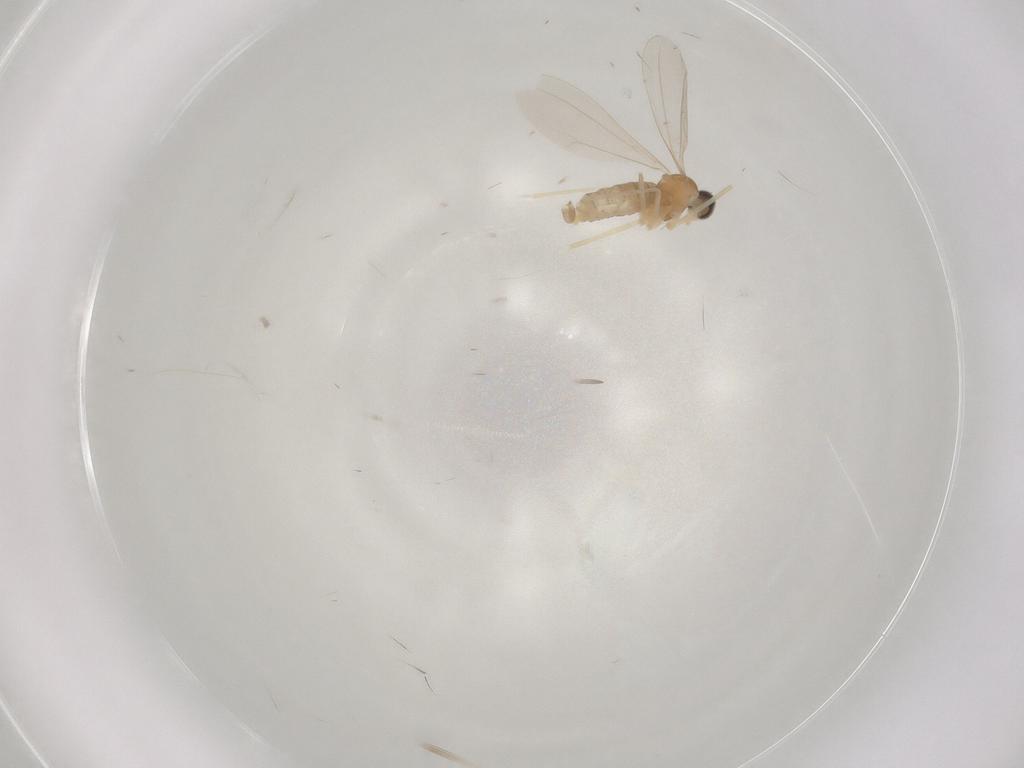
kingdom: Animalia
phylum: Arthropoda
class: Insecta
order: Diptera
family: Cecidomyiidae
